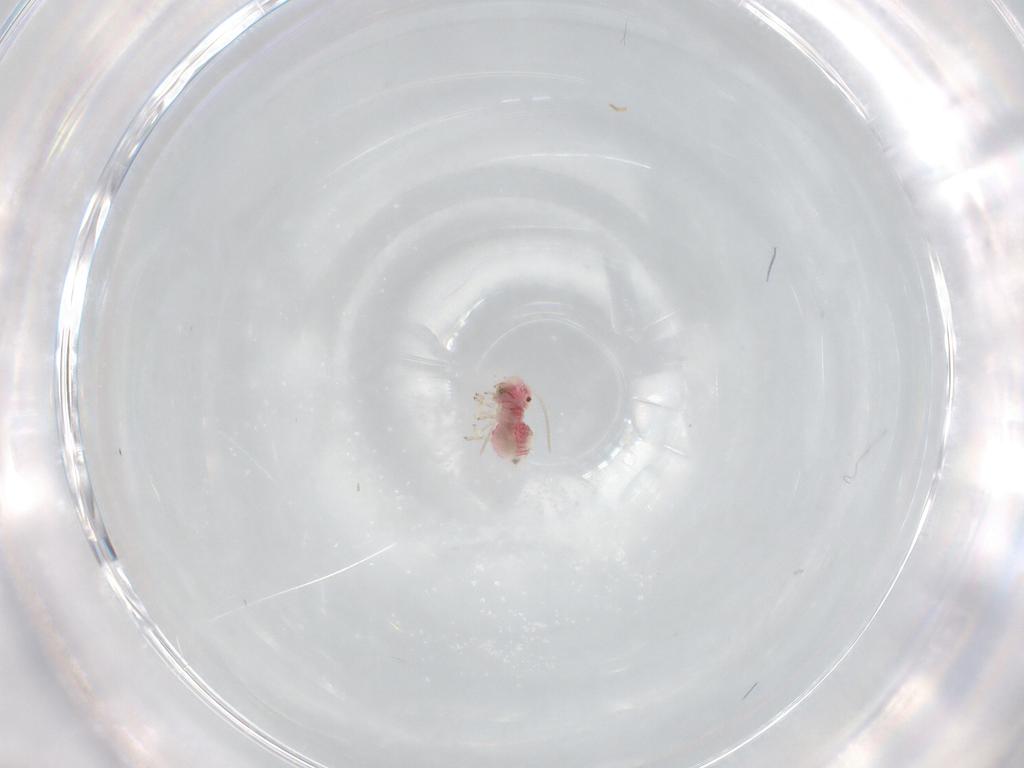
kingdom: Animalia
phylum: Arthropoda
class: Insecta
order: Psocodea
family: Caeciliusidae
